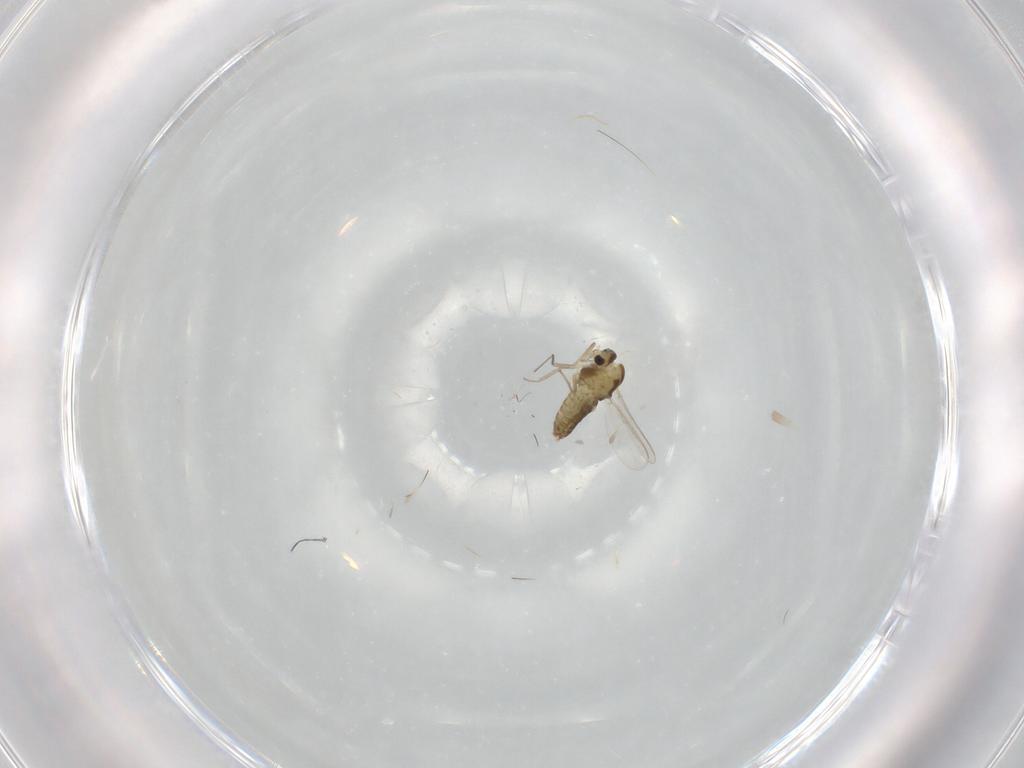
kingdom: Animalia
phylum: Arthropoda
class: Insecta
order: Diptera
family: Chironomidae
